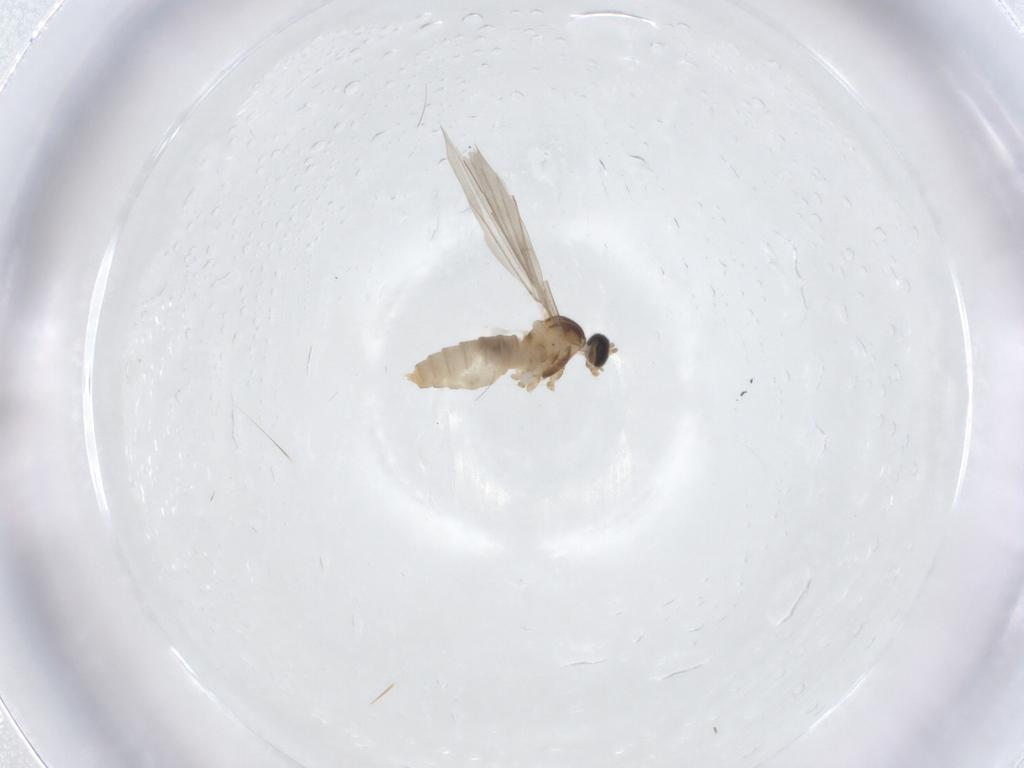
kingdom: Animalia
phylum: Arthropoda
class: Insecta
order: Diptera
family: Cecidomyiidae
